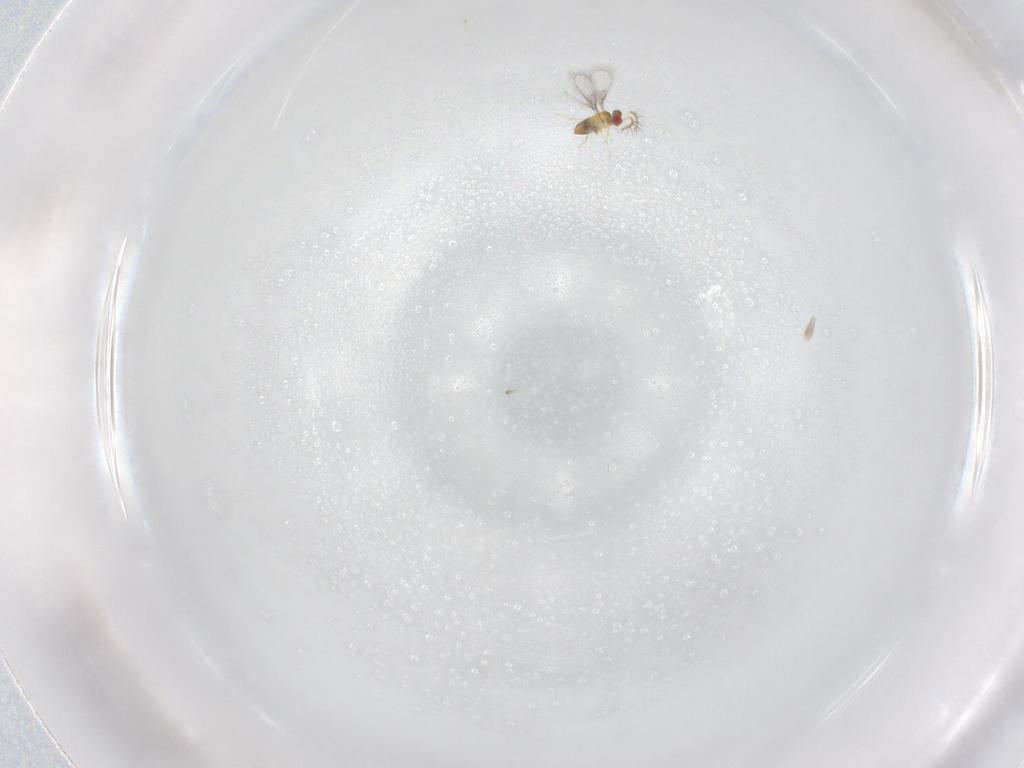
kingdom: Animalia
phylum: Arthropoda
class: Insecta
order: Hymenoptera
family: Trichogrammatidae
